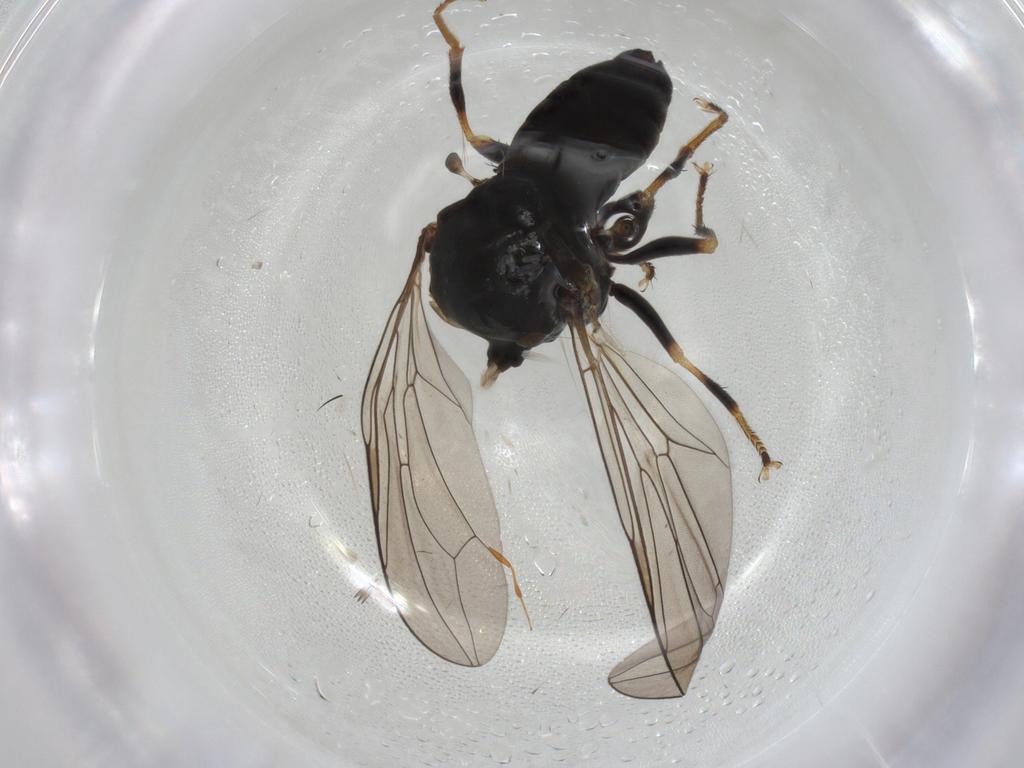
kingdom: Animalia
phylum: Arthropoda
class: Insecta
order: Diptera
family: Pipunculidae
